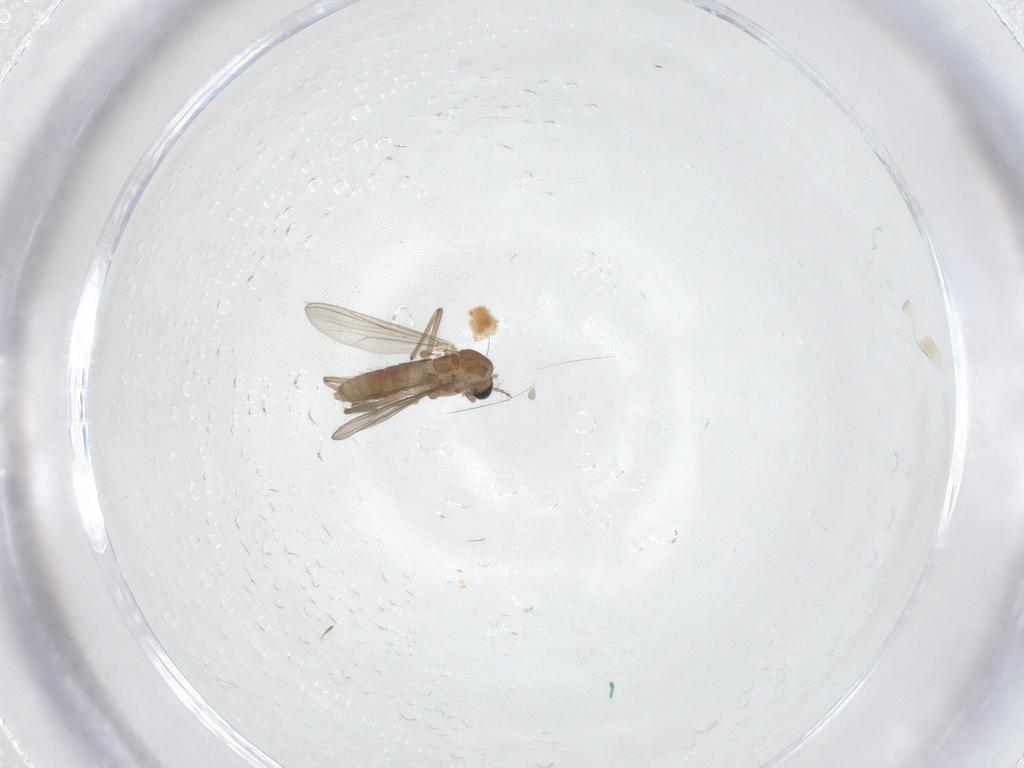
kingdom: Animalia
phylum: Arthropoda
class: Insecta
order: Diptera
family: Chironomidae
